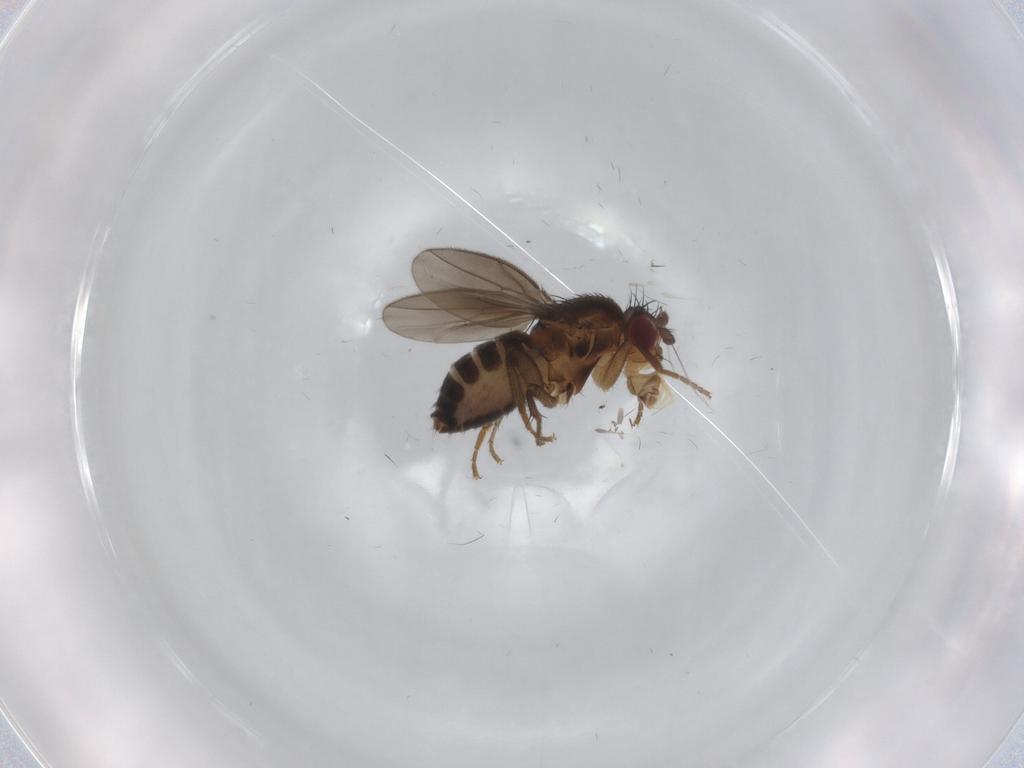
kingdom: Animalia
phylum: Arthropoda
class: Insecta
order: Diptera
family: Sphaeroceridae
